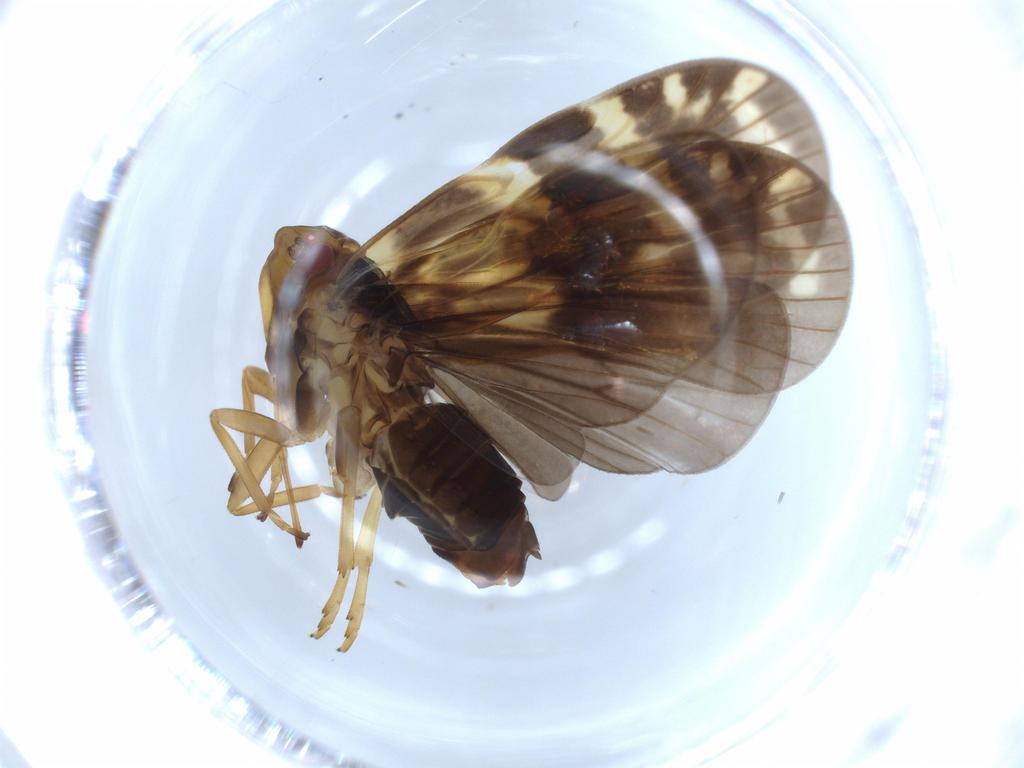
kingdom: Animalia
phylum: Arthropoda
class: Insecta
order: Hemiptera
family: Cixiidae
